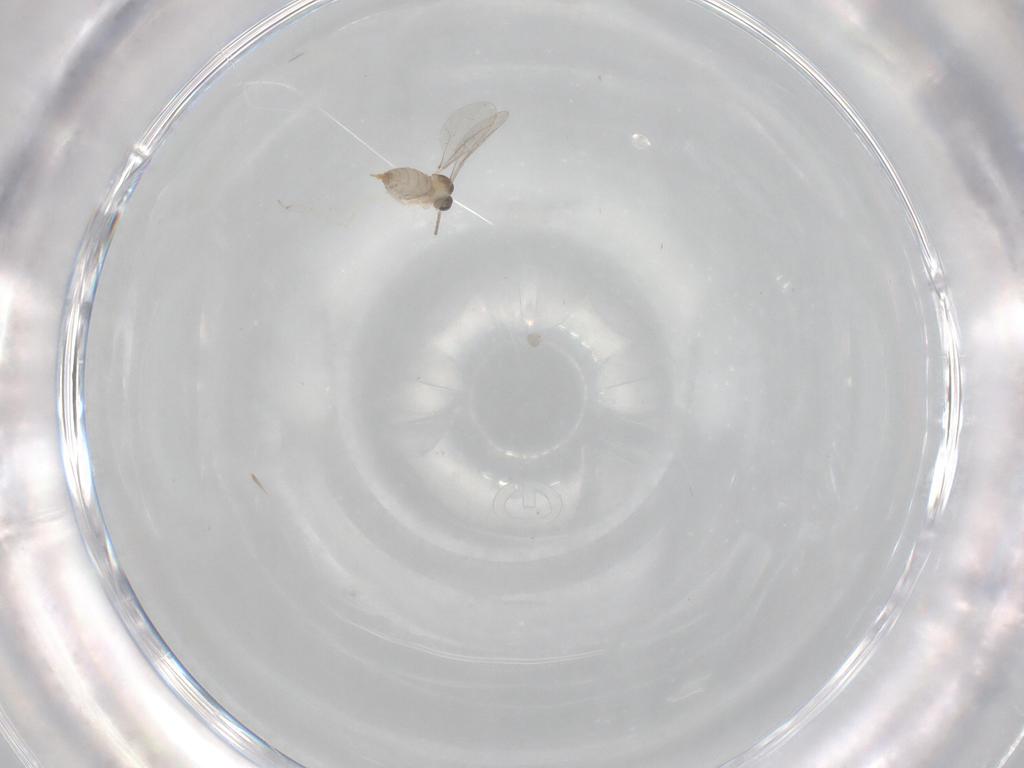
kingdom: Animalia
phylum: Arthropoda
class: Insecta
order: Diptera
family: Cecidomyiidae
